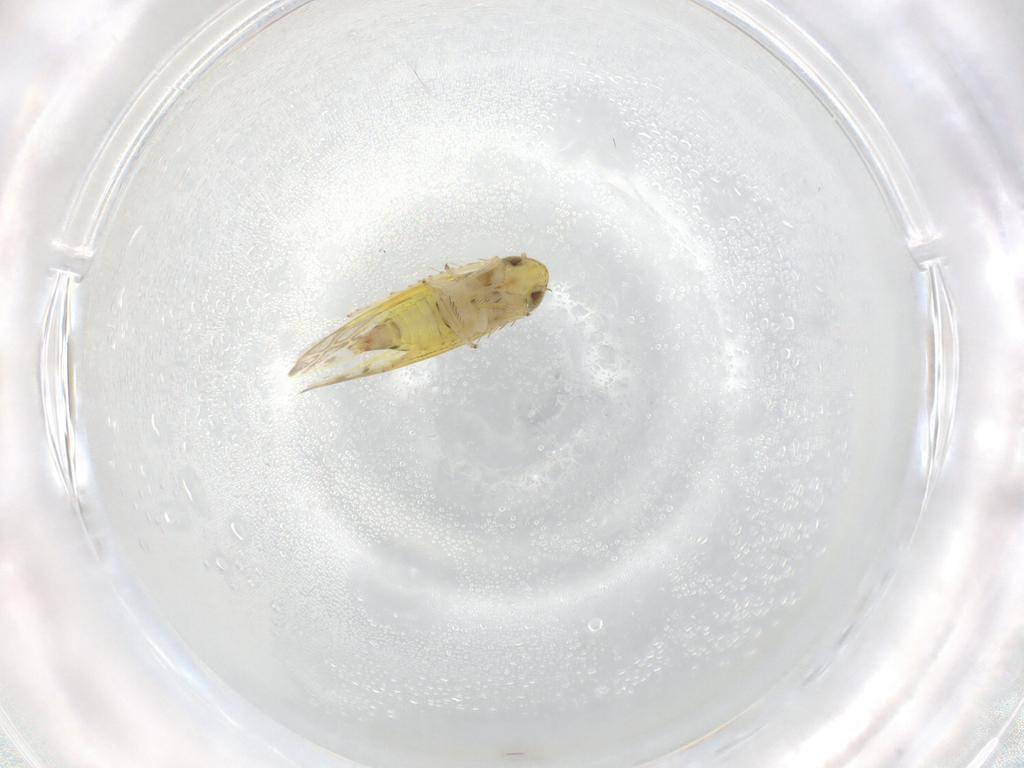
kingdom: Animalia
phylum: Arthropoda
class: Insecta
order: Hemiptera
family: Cicadellidae
